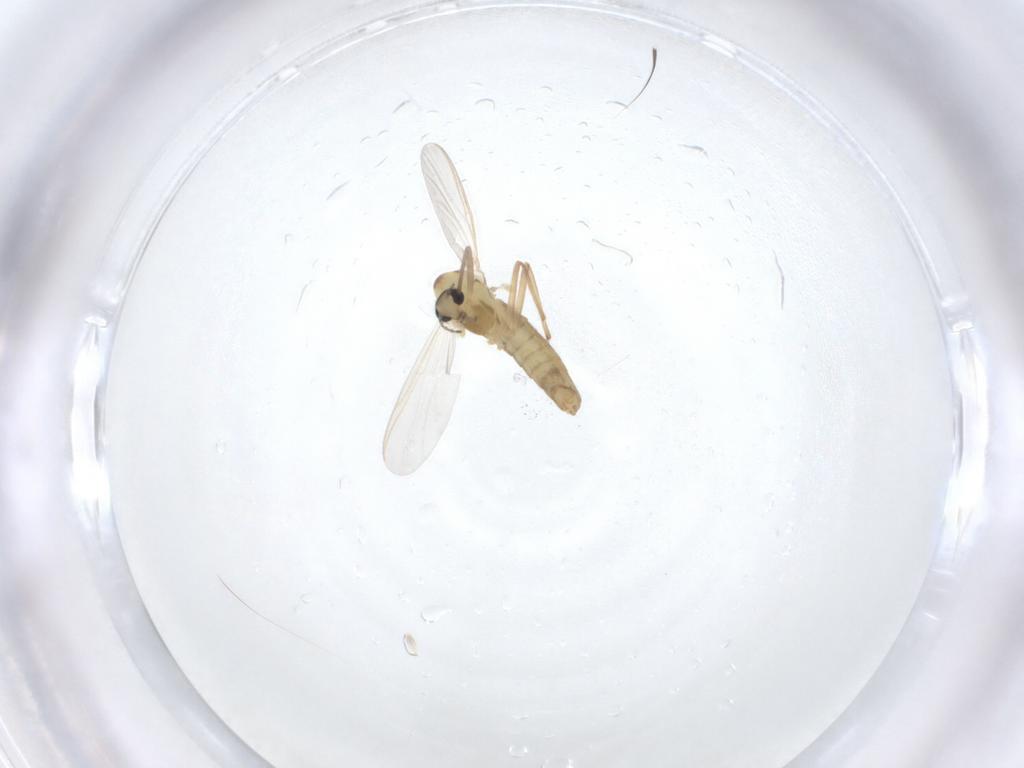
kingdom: Animalia
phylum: Arthropoda
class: Insecta
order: Diptera
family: Chironomidae
